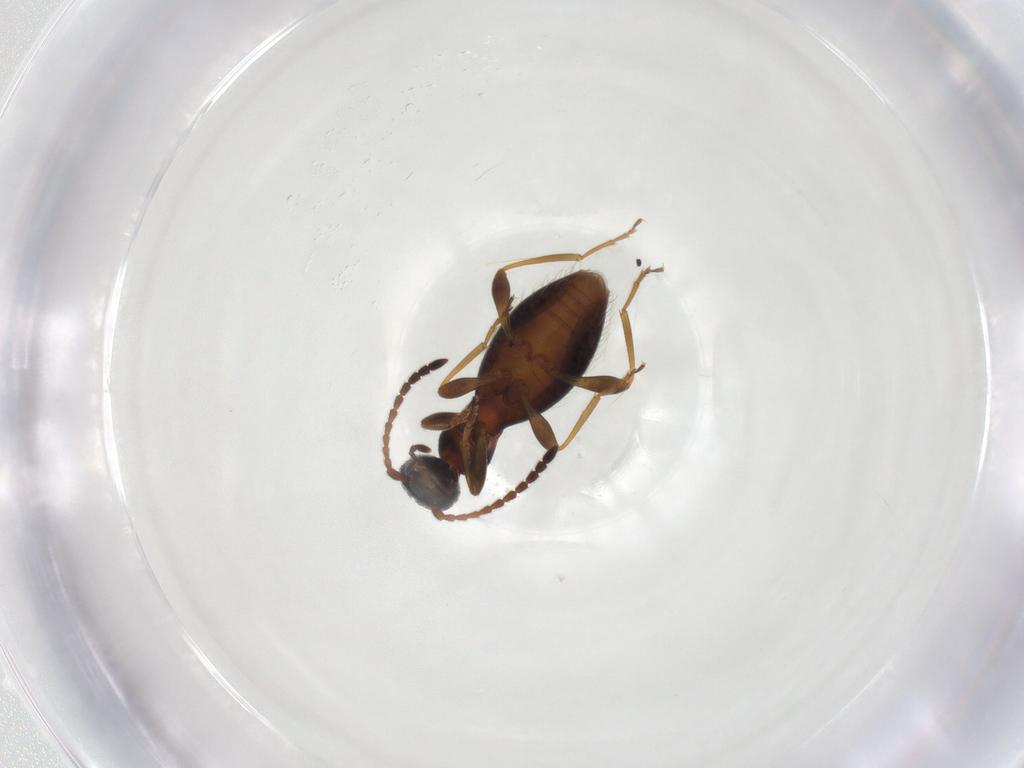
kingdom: Animalia
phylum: Arthropoda
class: Insecta
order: Coleoptera
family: Anthicidae
